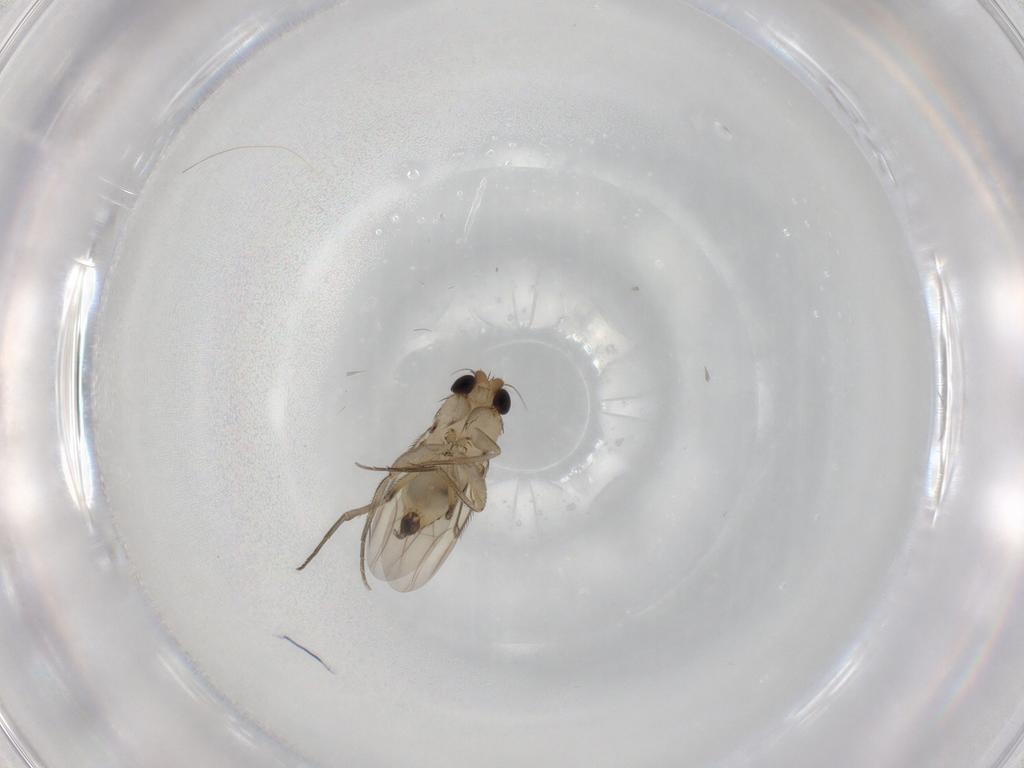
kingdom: Animalia
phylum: Arthropoda
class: Insecta
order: Diptera
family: Phoridae
